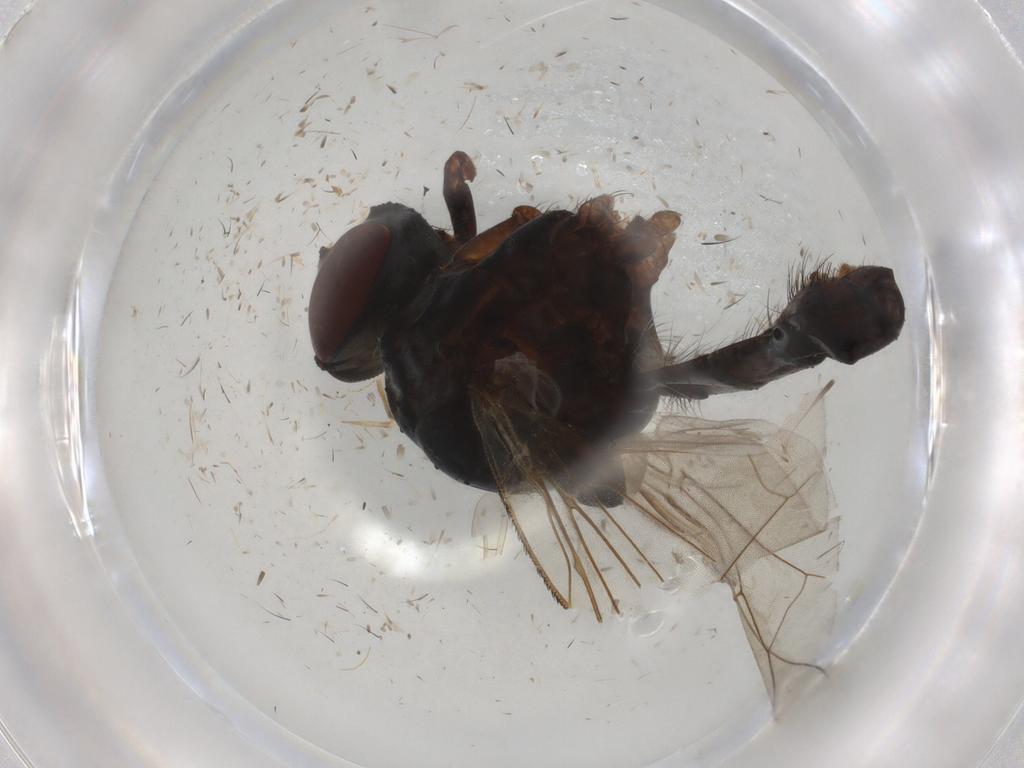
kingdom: Animalia
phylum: Arthropoda
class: Insecta
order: Diptera
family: Anthomyiidae
